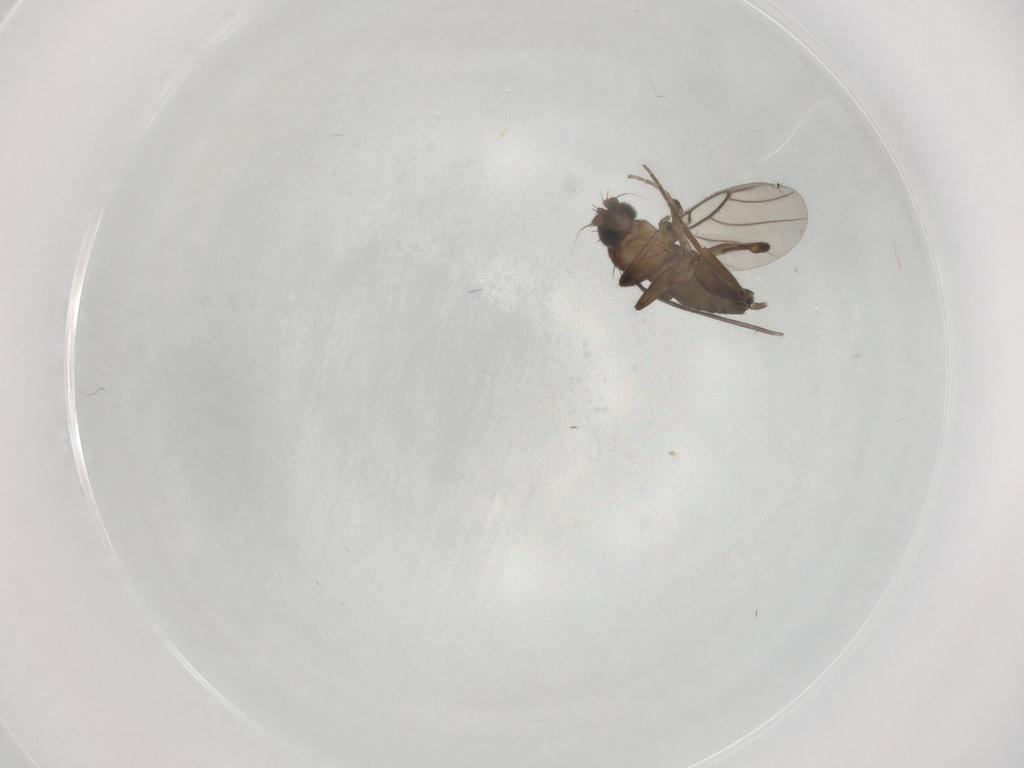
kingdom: Animalia
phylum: Arthropoda
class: Insecta
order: Diptera
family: Phoridae
